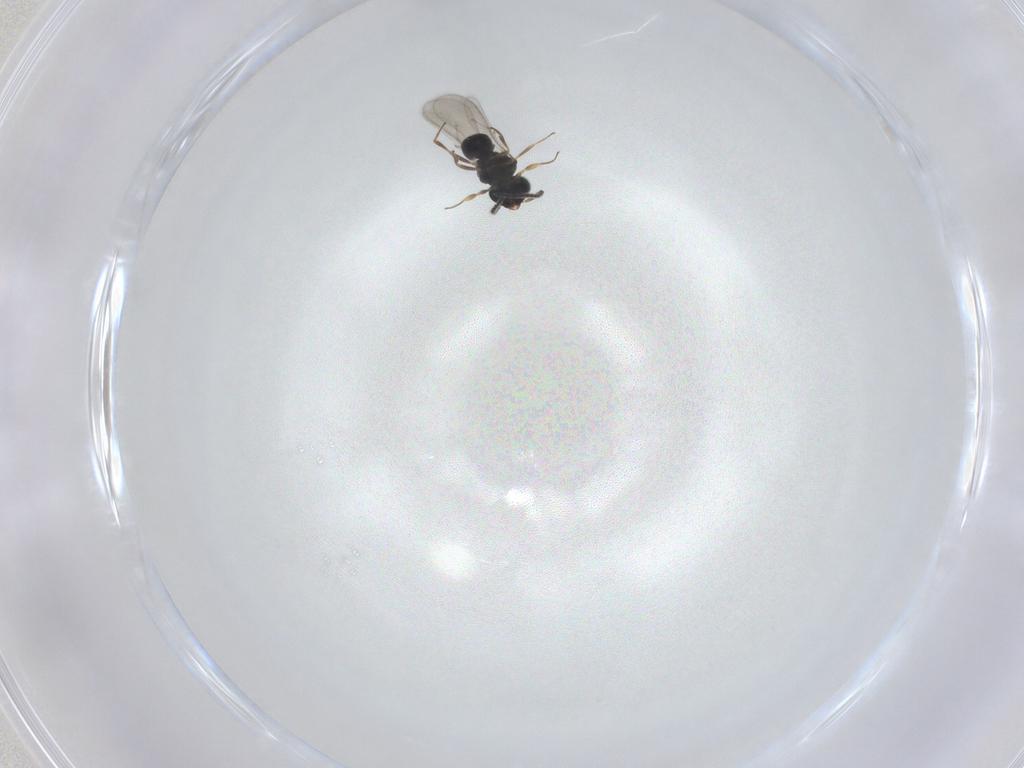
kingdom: Animalia
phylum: Arthropoda
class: Insecta
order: Hymenoptera
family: Scelionidae
